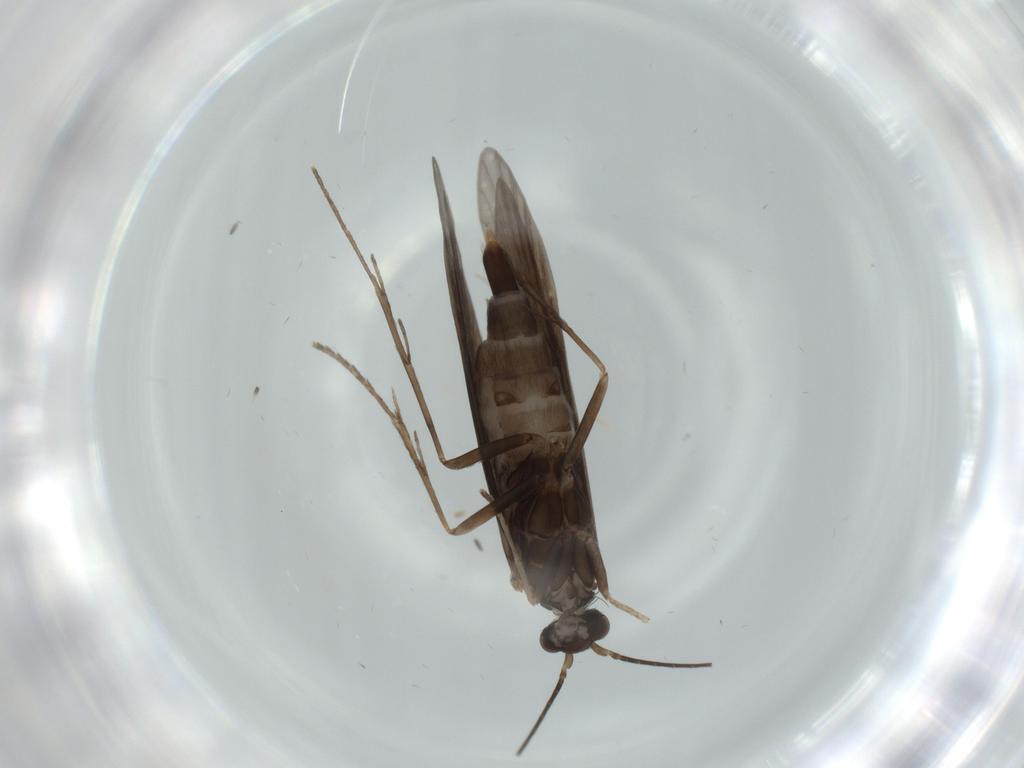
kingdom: Animalia
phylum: Arthropoda
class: Insecta
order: Trichoptera
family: Xiphocentronidae
